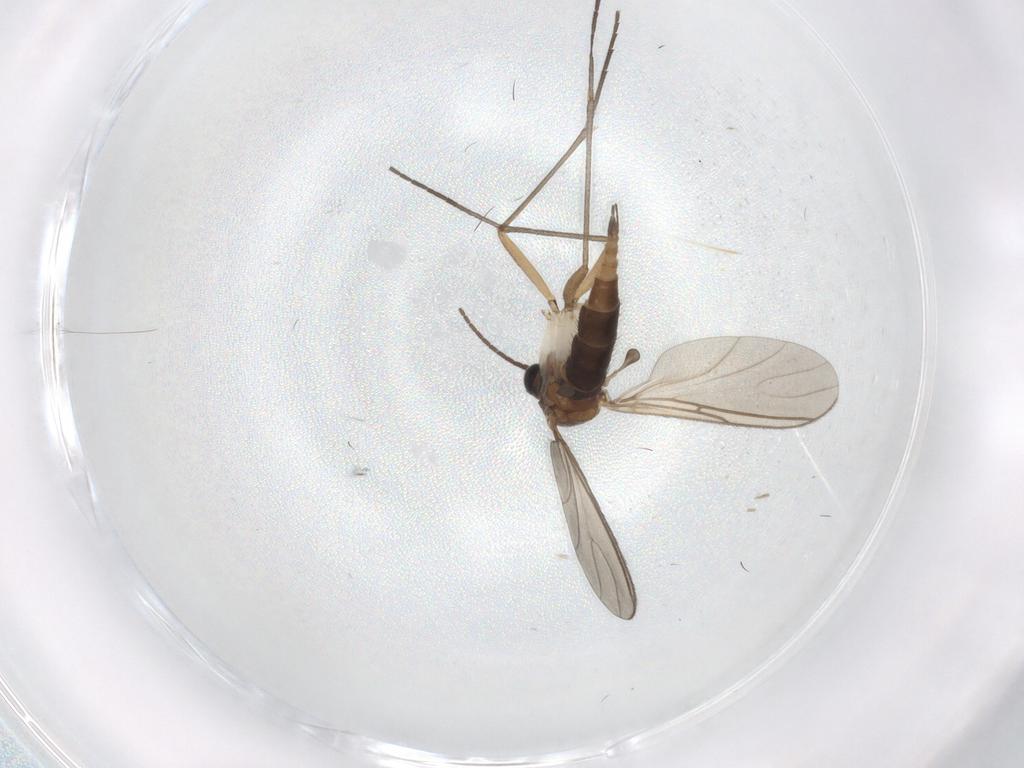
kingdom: Animalia
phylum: Arthropoda
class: Insecta
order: Diptera
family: Sciaridae
